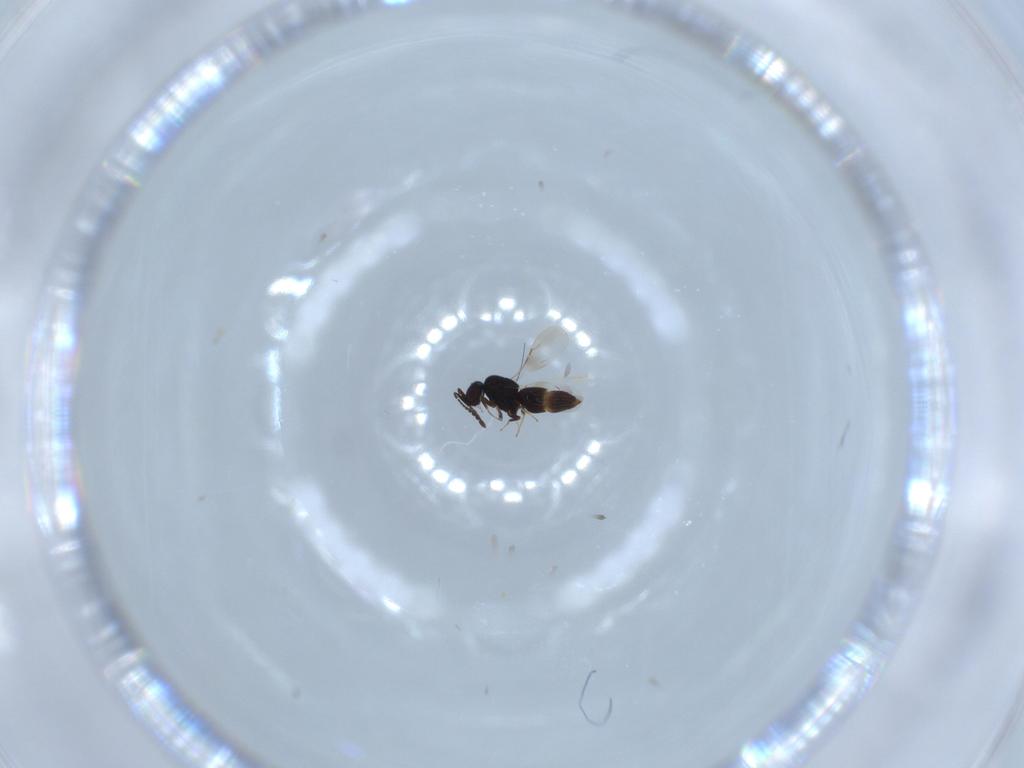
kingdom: Animalia
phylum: Arthropoda
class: Insecta
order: Hymenoptera
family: Ceraphronidae
